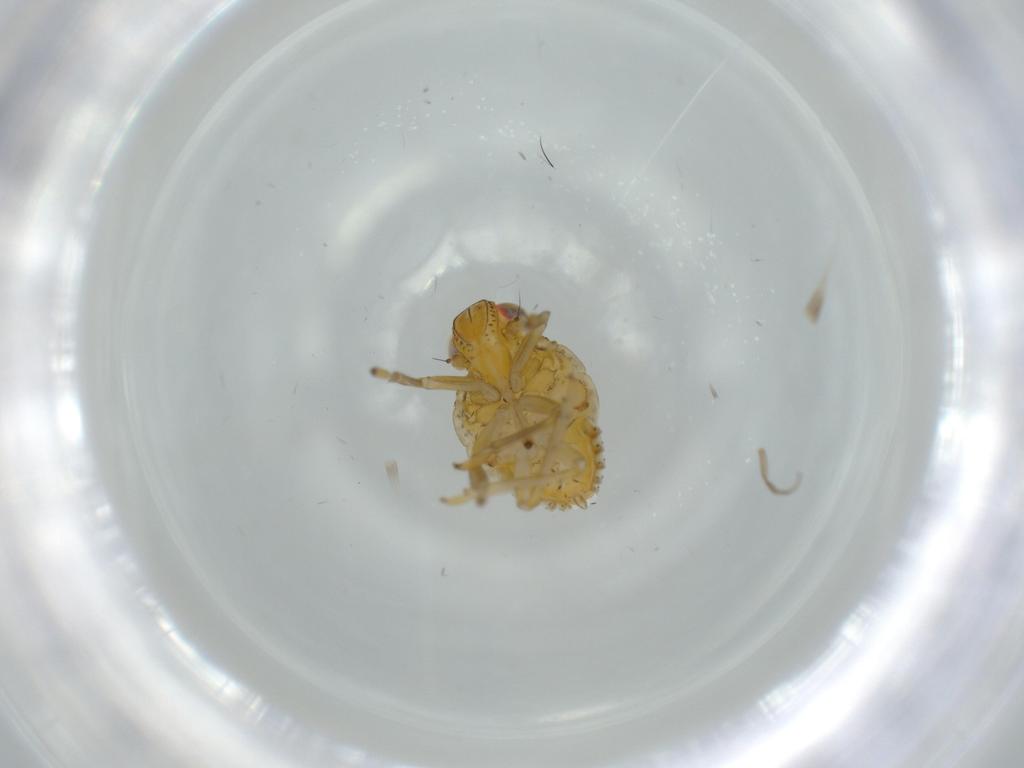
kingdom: Animalia
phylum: Arthropoda
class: Insecta
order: Hemiptera
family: Issidae
